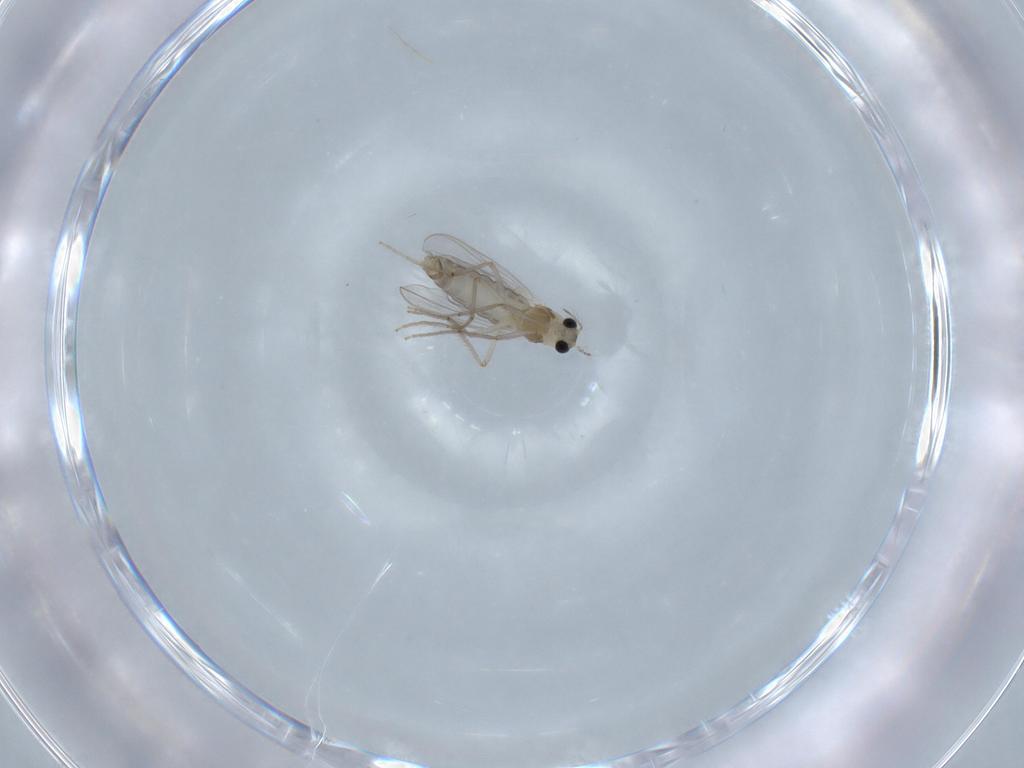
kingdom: Animalia
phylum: Arthropoda
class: Insecta
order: Diptera
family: Chironomidae
